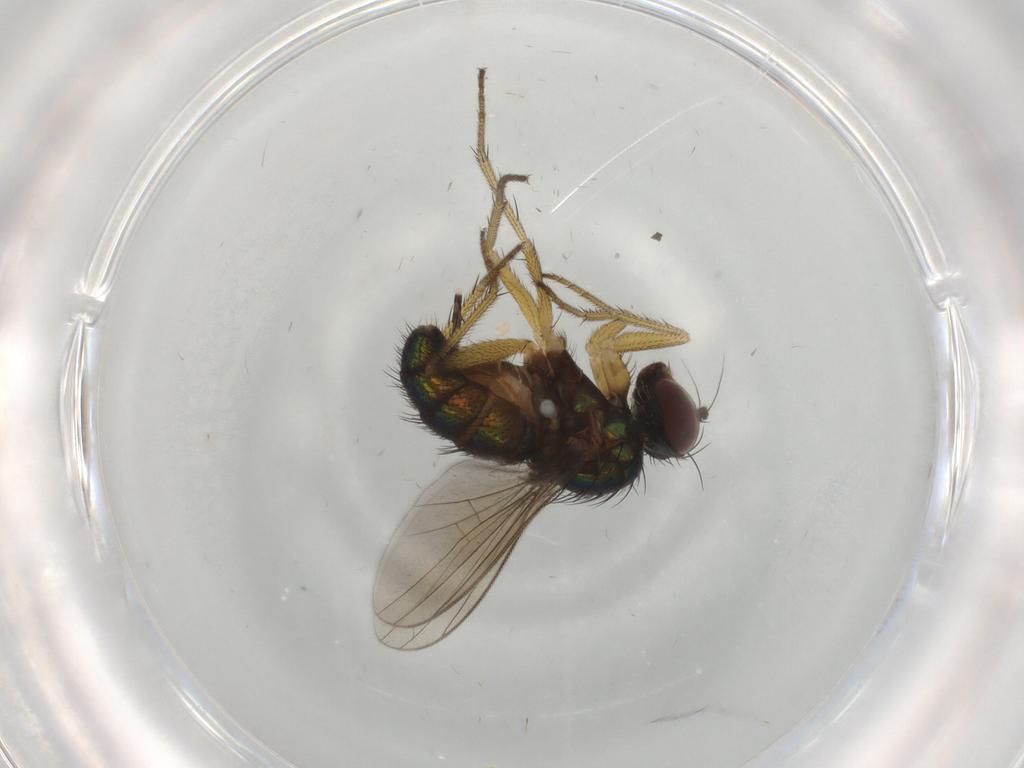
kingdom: Animalia
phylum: Arthropoda
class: Insecta
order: Diptera
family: Dolichopodidae
